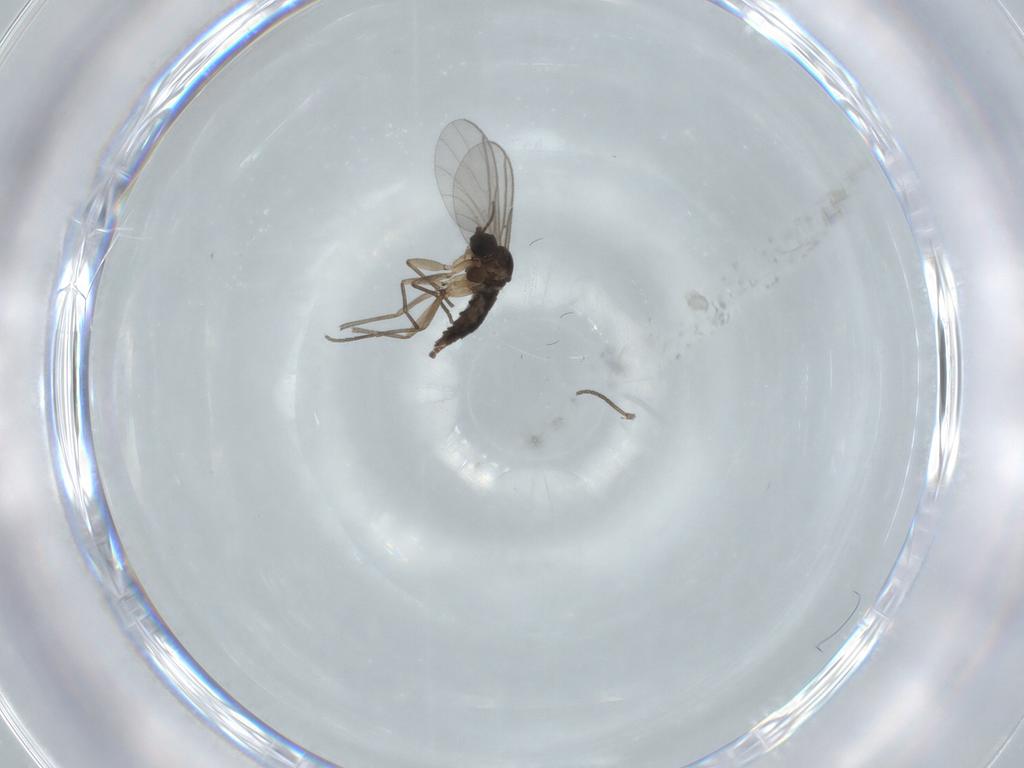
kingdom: Animalia
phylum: Arthropoda
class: Insecta
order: Diptera
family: Sciaridae
